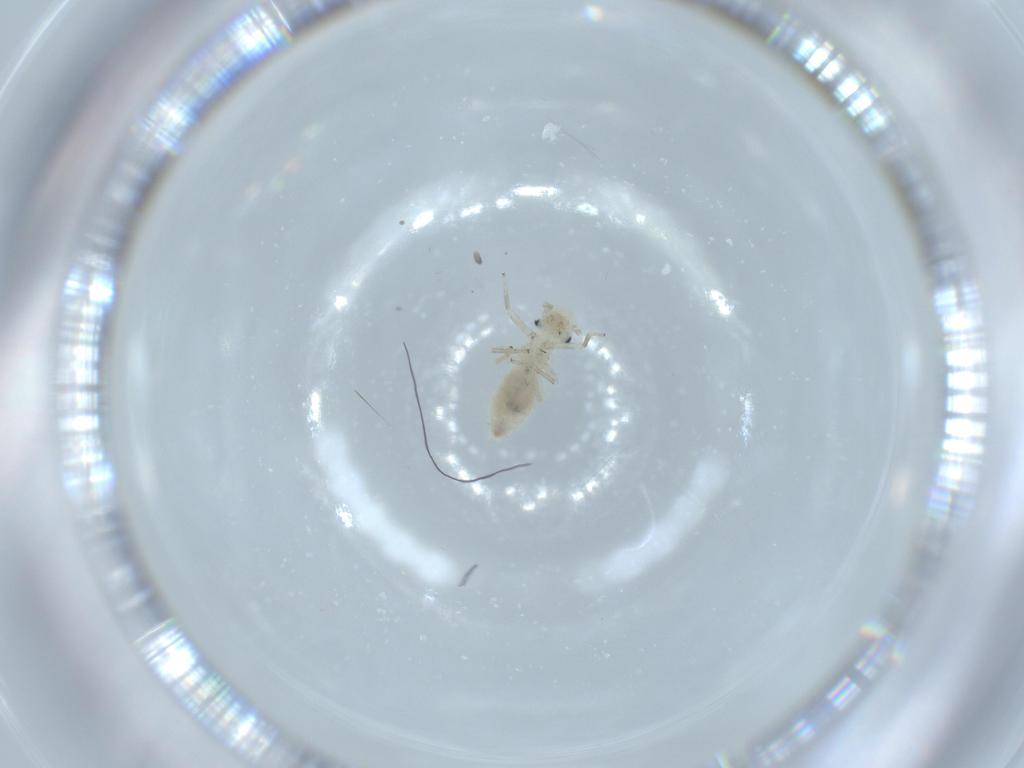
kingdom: Animalia
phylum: Arthropoda
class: Insecta
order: Psocodea
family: Caeciliusidae
